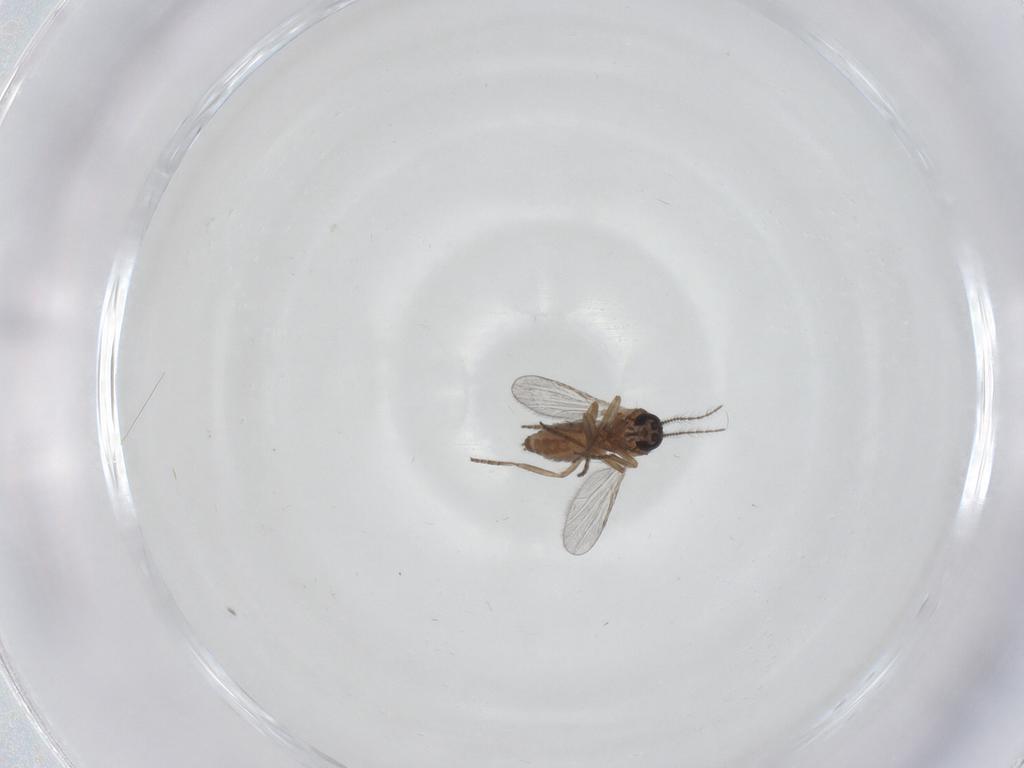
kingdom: Animalia
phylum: Arthropoda
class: Insecta
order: Diptera
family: Ceratopogonidae
